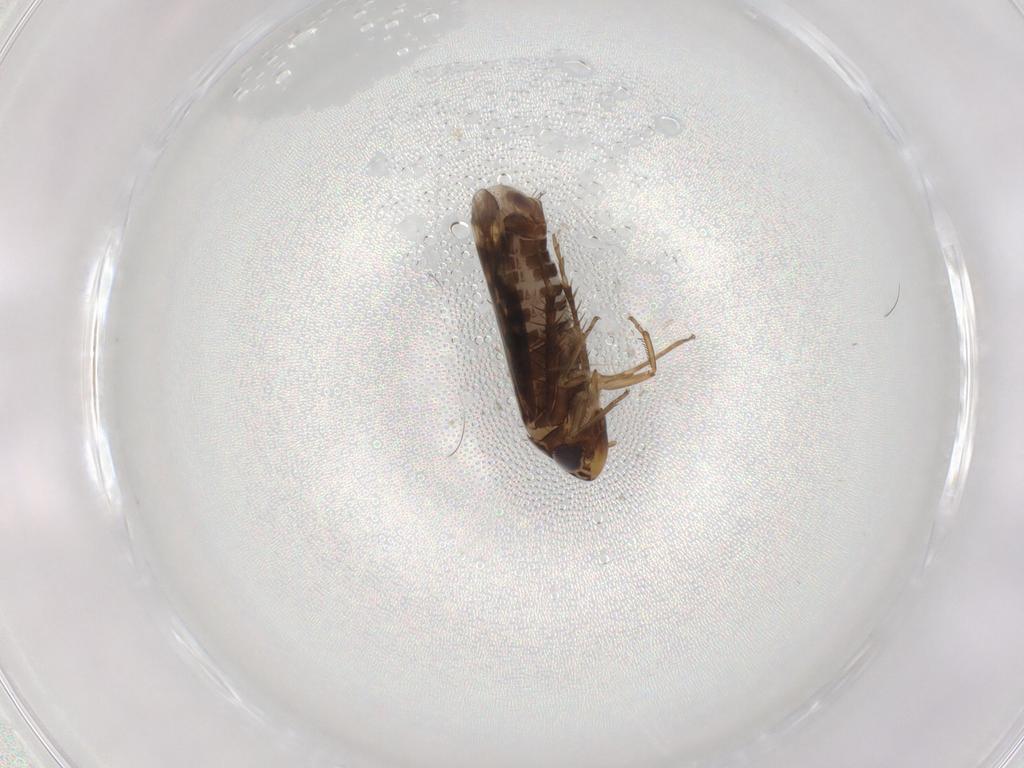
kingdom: Animalia
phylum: Arthropoda
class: Insecta
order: Hemiptera
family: Cicadellidae
